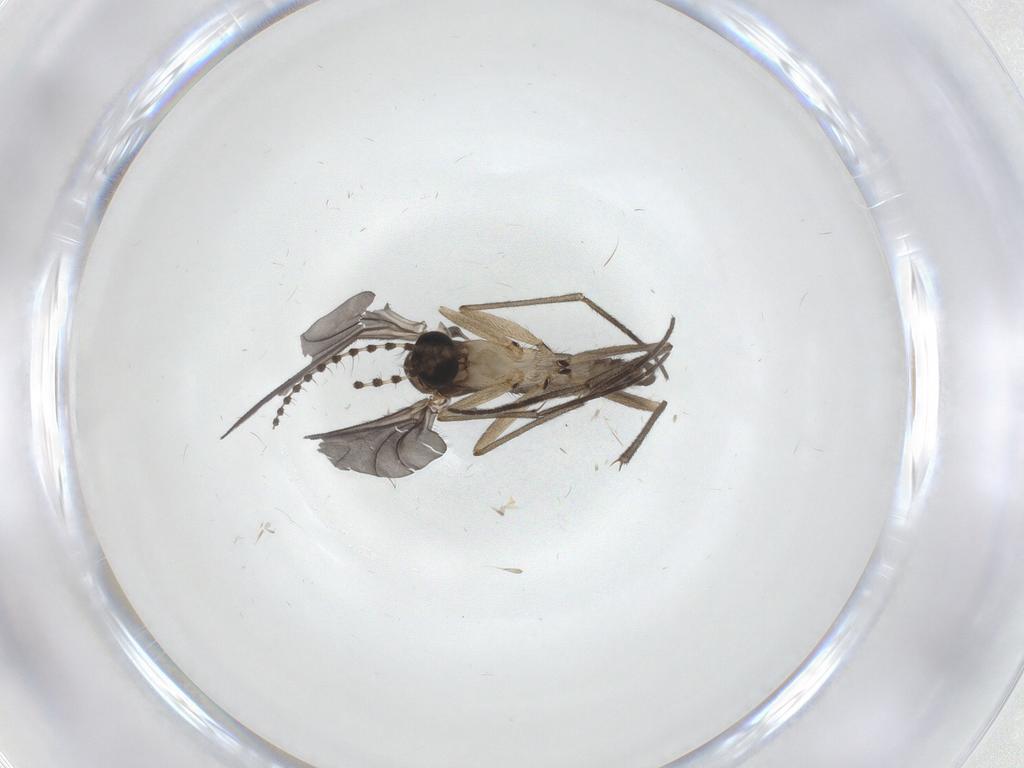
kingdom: Animalia
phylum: Arthropoda
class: Insecta
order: Diptera
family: Sciaridae
